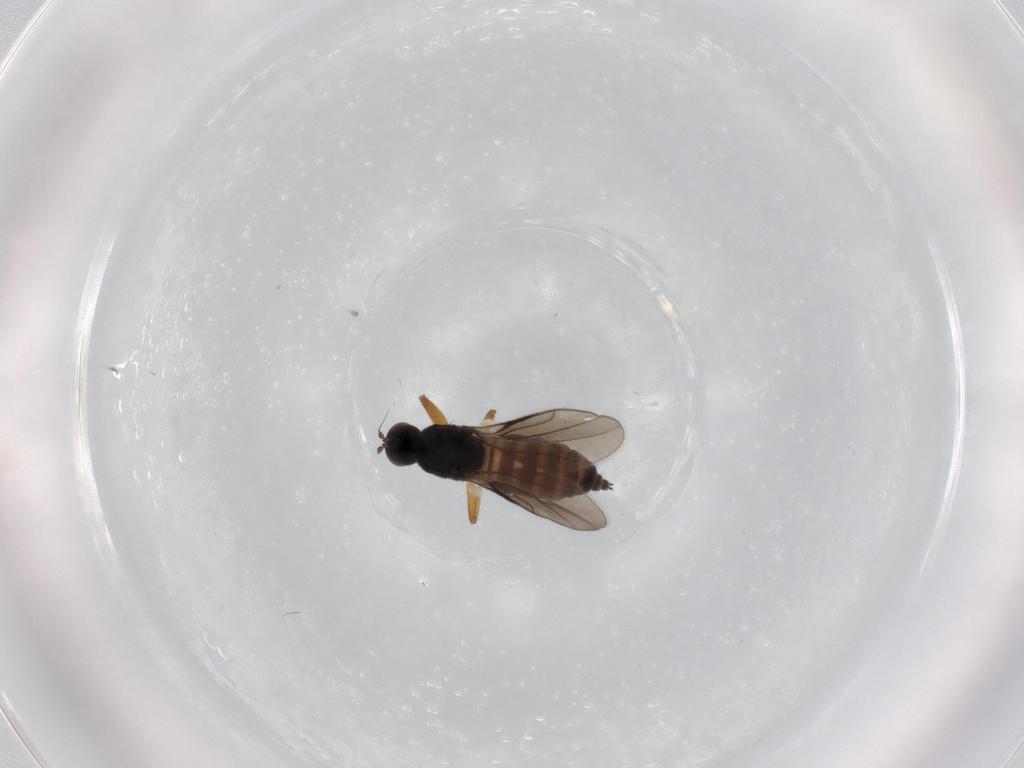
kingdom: Animalia
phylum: Arthropoda
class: Insecta
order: Diptera
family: Hybotidae
